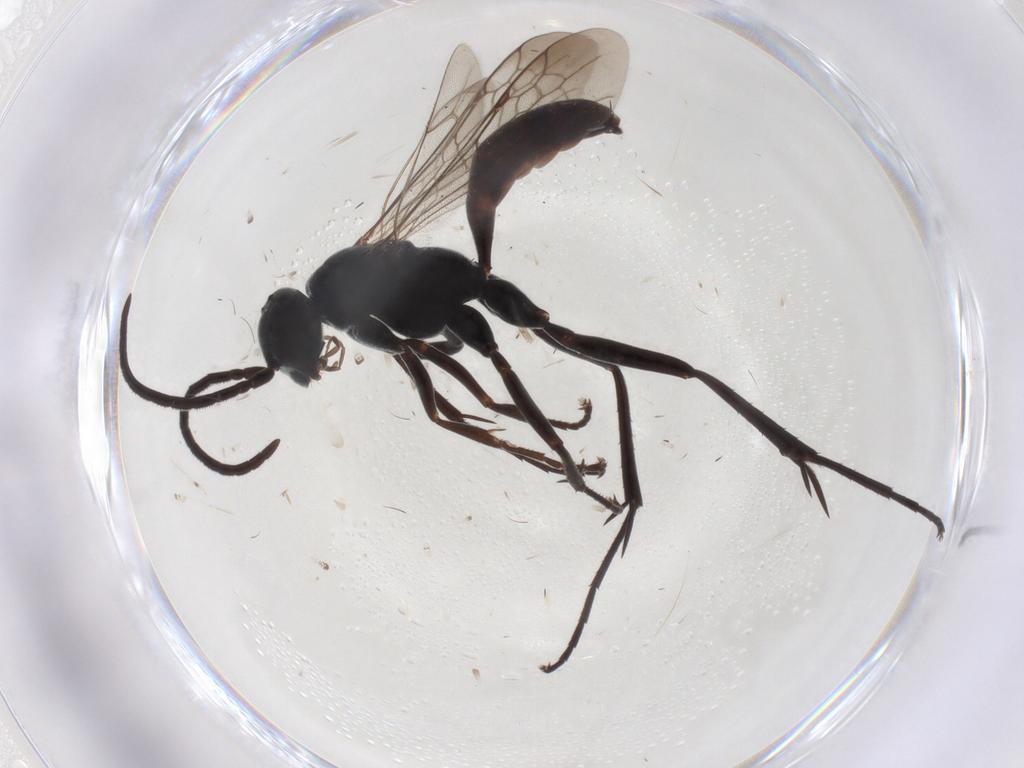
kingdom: Animalia
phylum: Arthropoda
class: Insecta
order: Hymenoptera
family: Pompilidae
